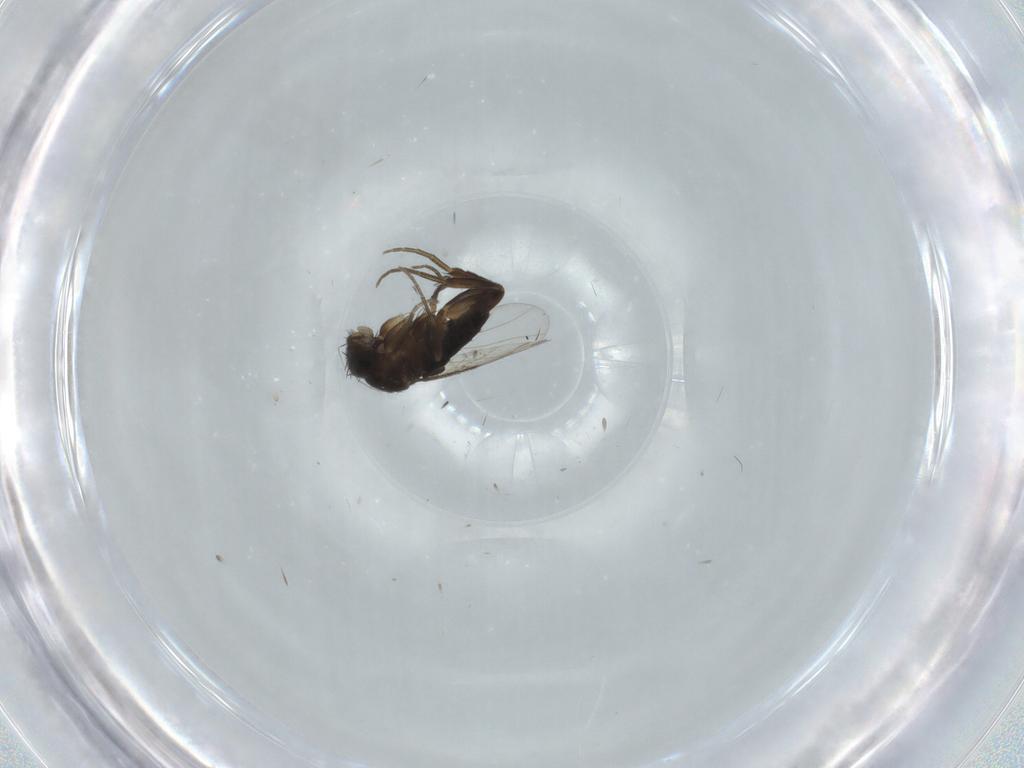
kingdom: Animalia
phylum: Arthropoda
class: Insecta
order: Diptera
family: Phoridae
